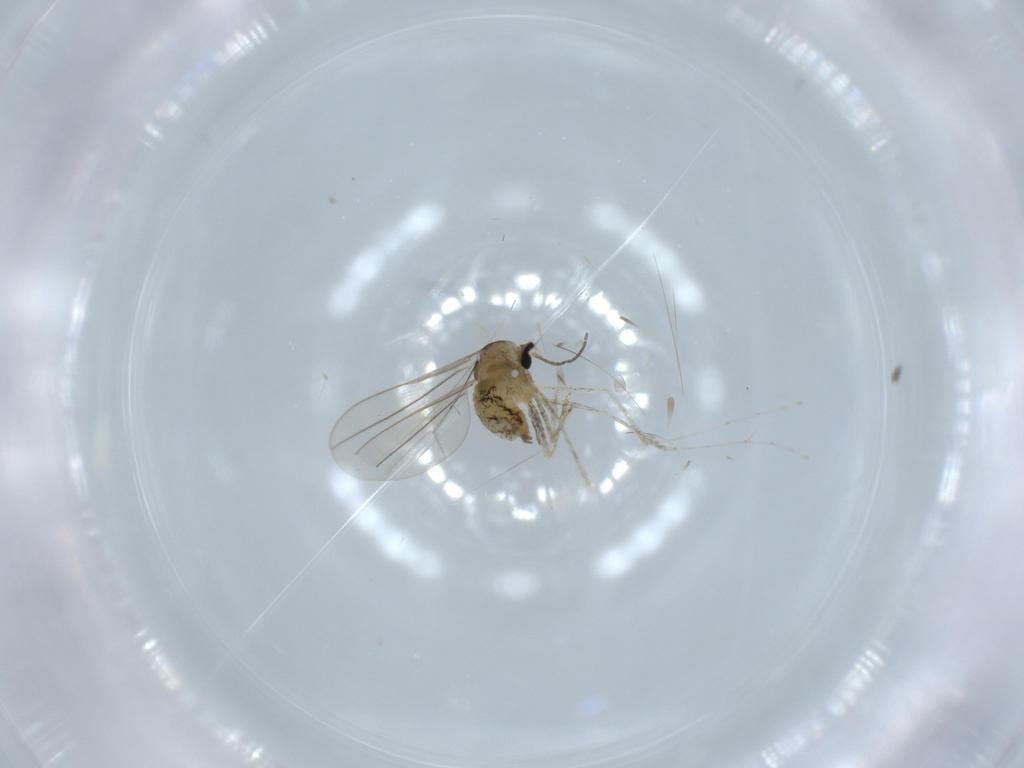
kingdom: Animalia
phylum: Arthropoda
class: Insecta
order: Diptera
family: Cecidomyiidae
